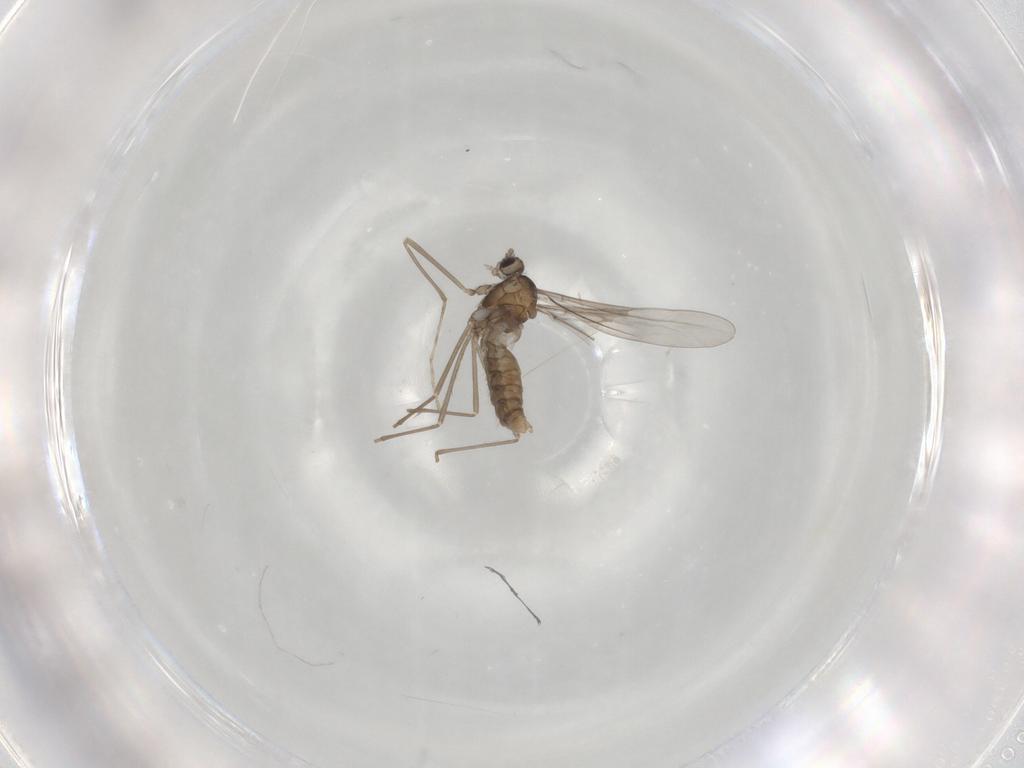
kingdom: Animalia
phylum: Arthropoda
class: Insecta
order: Diptera
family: Cecidomyiidae
